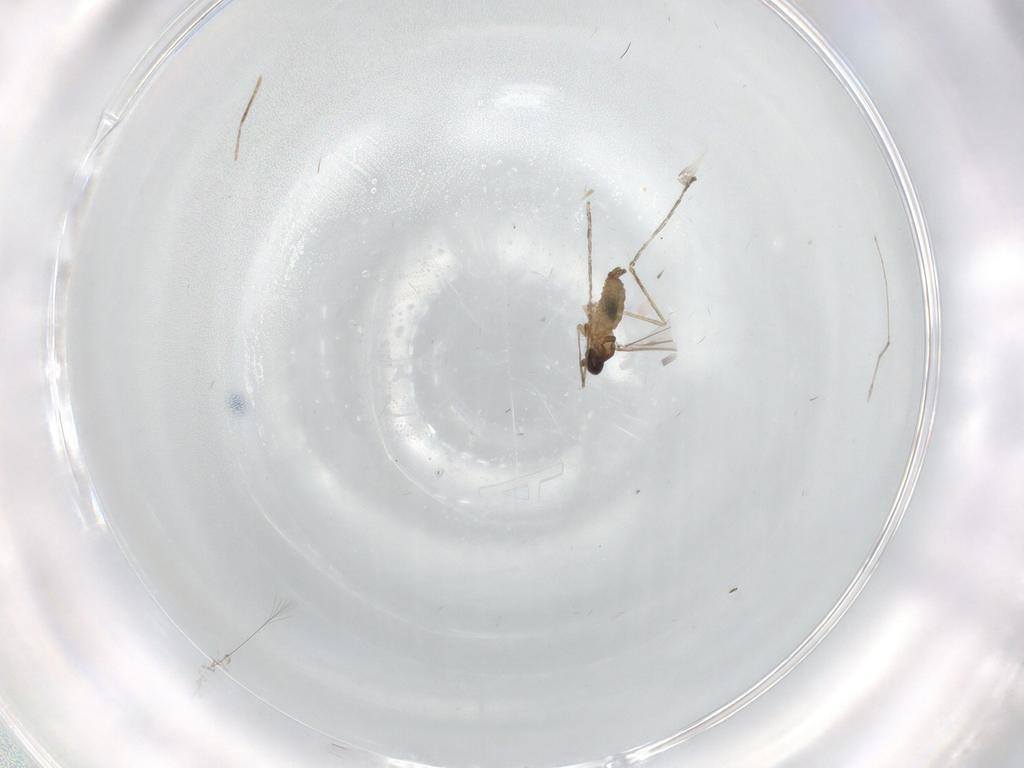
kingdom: Animalia
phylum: Arthropoda
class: Insecta
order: Diptera
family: Cecidomyiidae
